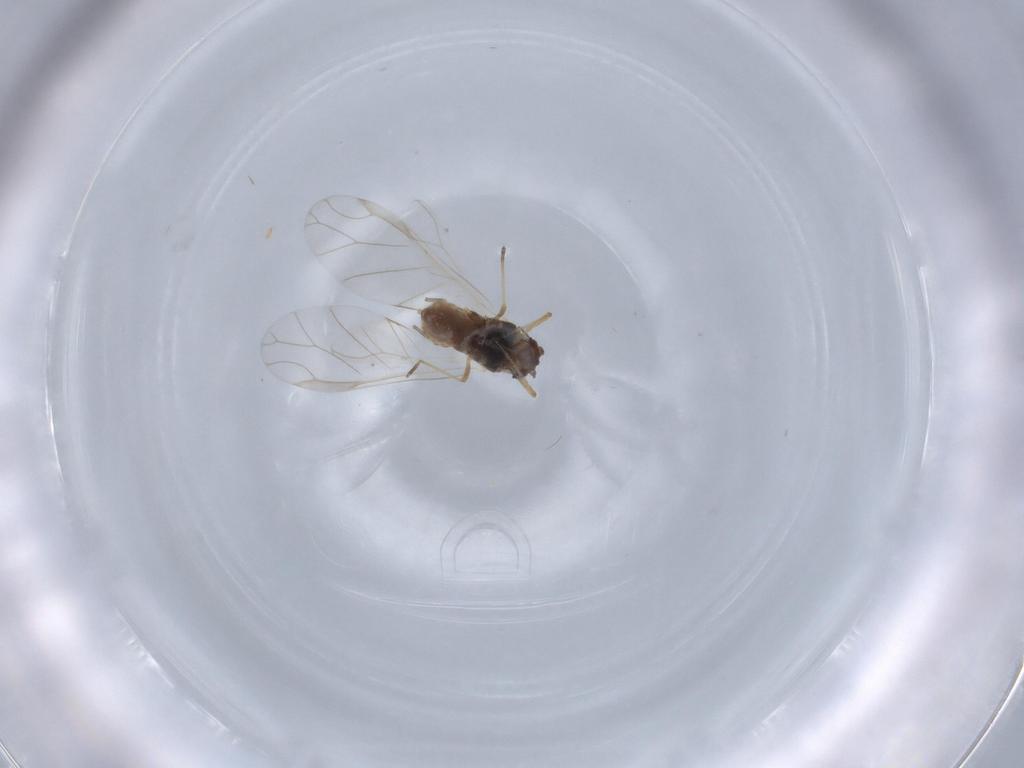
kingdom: Animalia
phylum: Arthropoda
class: Insecta
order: Hemiptera
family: Aphididae
